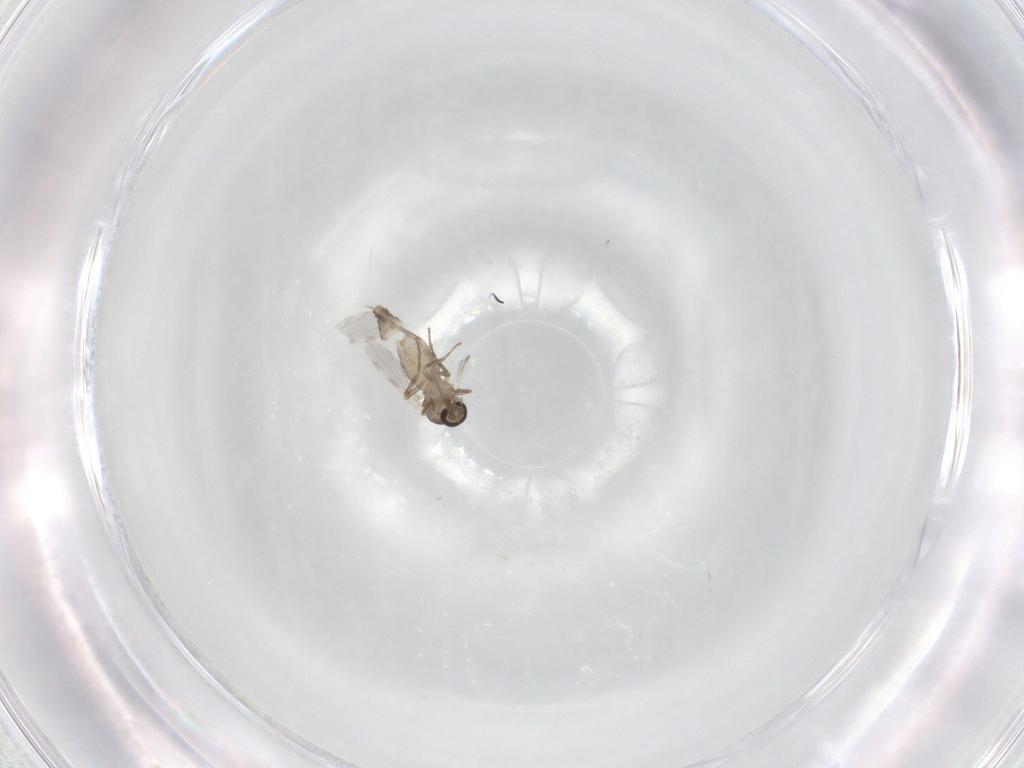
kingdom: Animalia
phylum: Arthropoda
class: Insecta
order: Diptera
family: Ceratopogonidae
